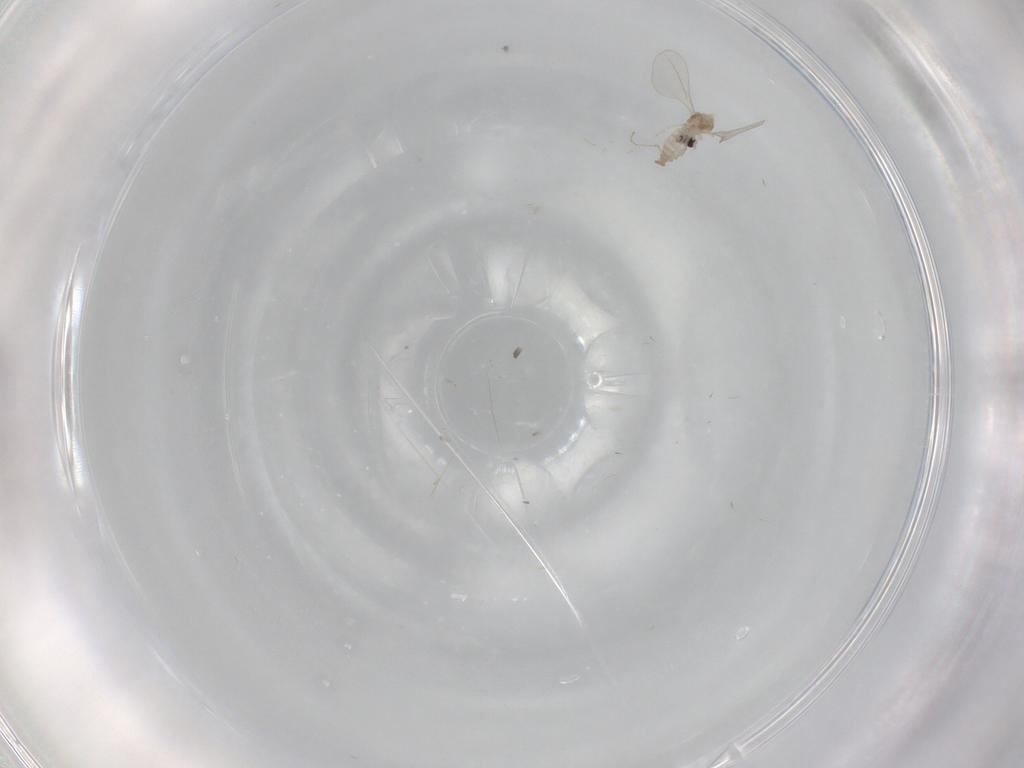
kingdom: Animalia
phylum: Arthropoda
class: Insecta
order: Diptera
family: Cecidomyiidae
